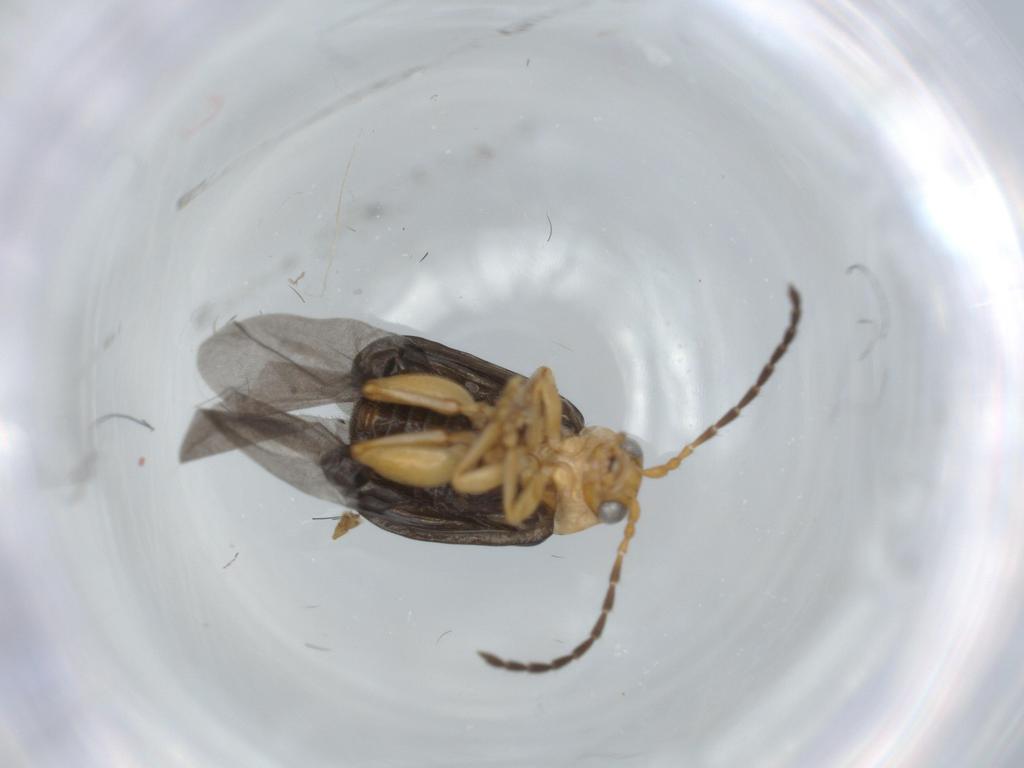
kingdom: Animalia
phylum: Arthropoda
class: Insecta
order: Coleoptera
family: Chrysomelidae
